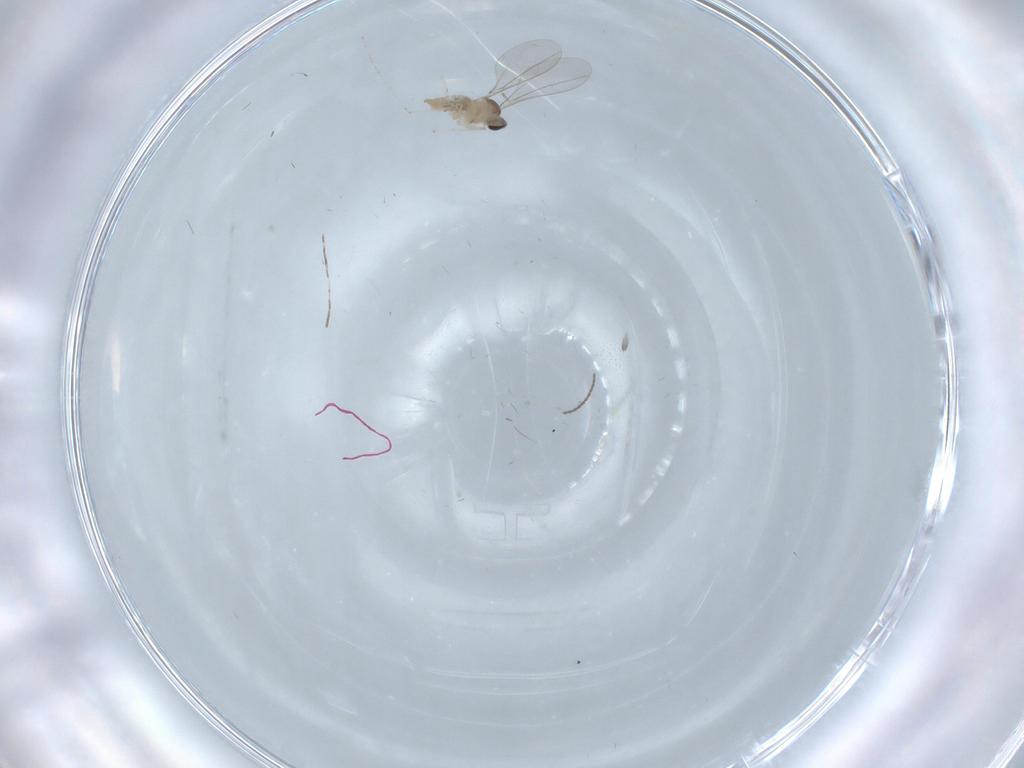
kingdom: Animalia
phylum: Arthropoda
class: Insecta
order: Diptera
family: Cecidomyiidae
